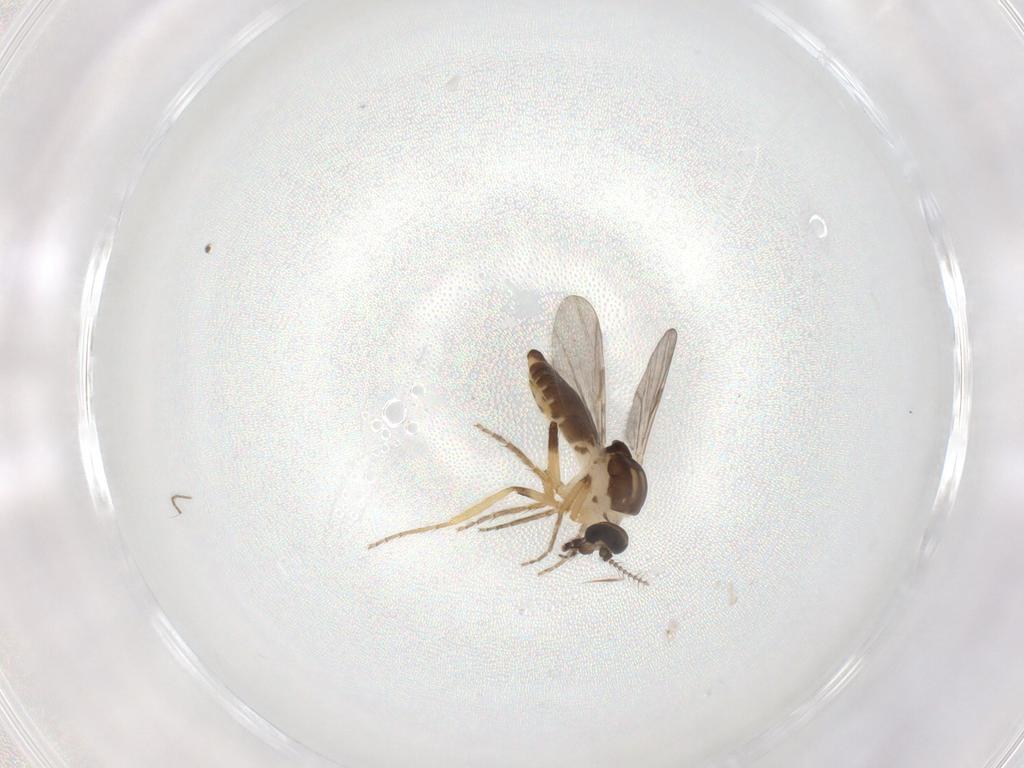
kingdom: Animalia
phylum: Arthropoda
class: Insecta
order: Diptera
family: Ceratopogonidae
